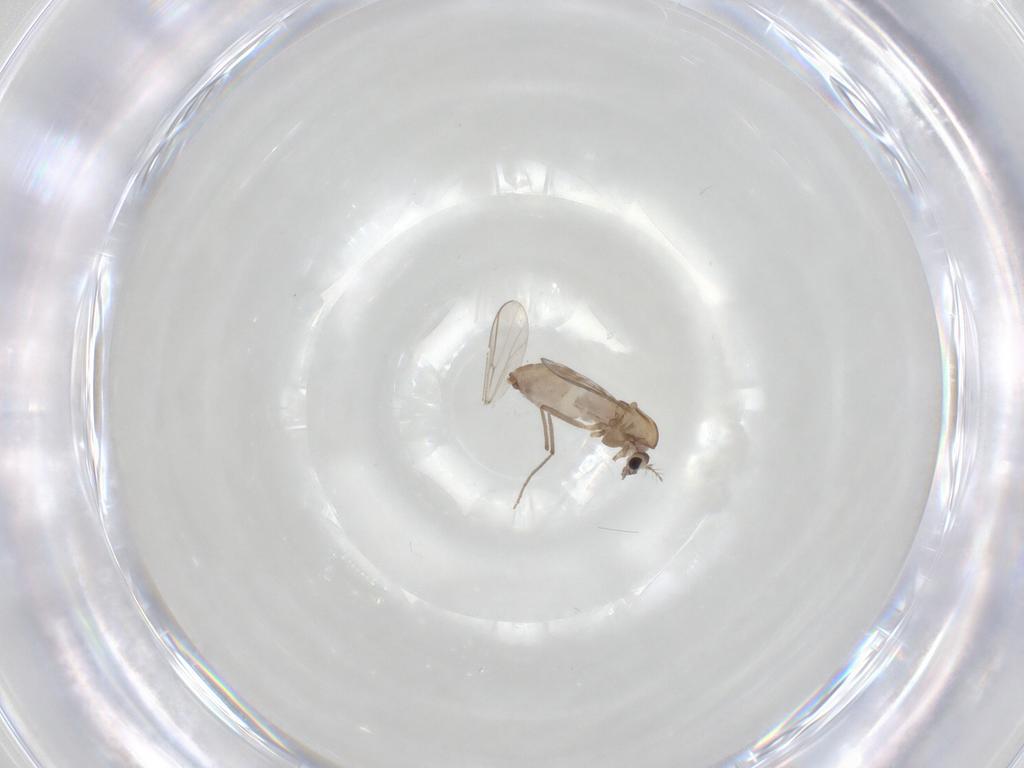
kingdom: Animalia
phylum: Arthropoda
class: Insecta
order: Diptera
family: Chironomidae
